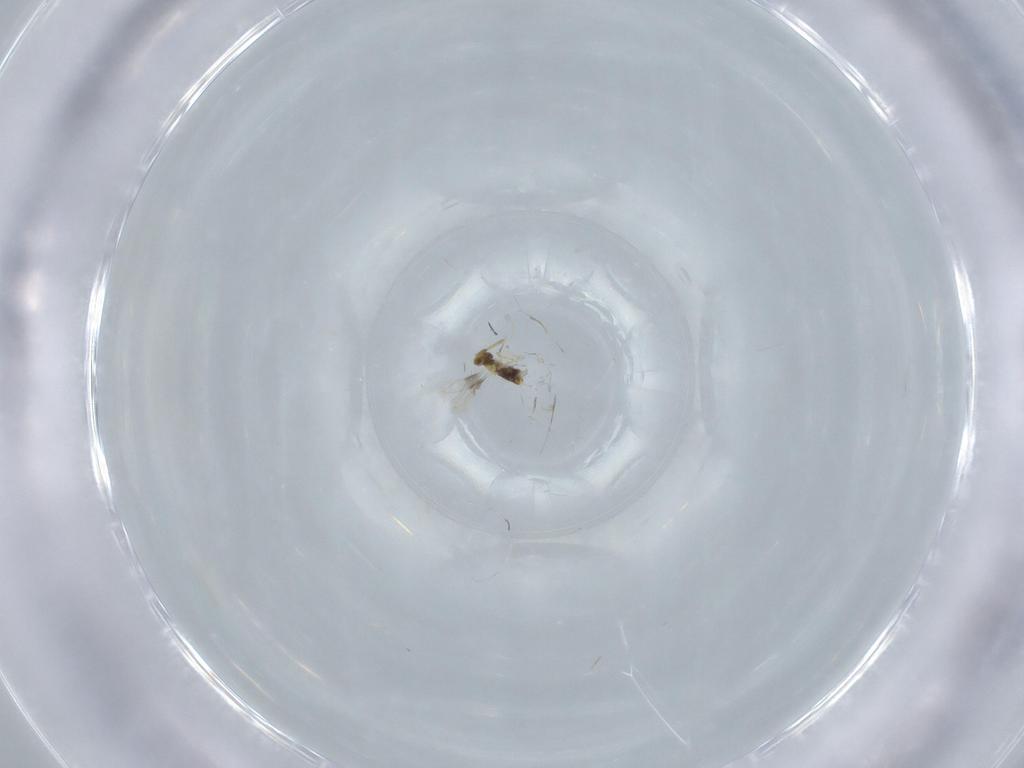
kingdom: Animalia
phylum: Arthropoda
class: Insecta
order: Hymenoptera
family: Aphelinidae
